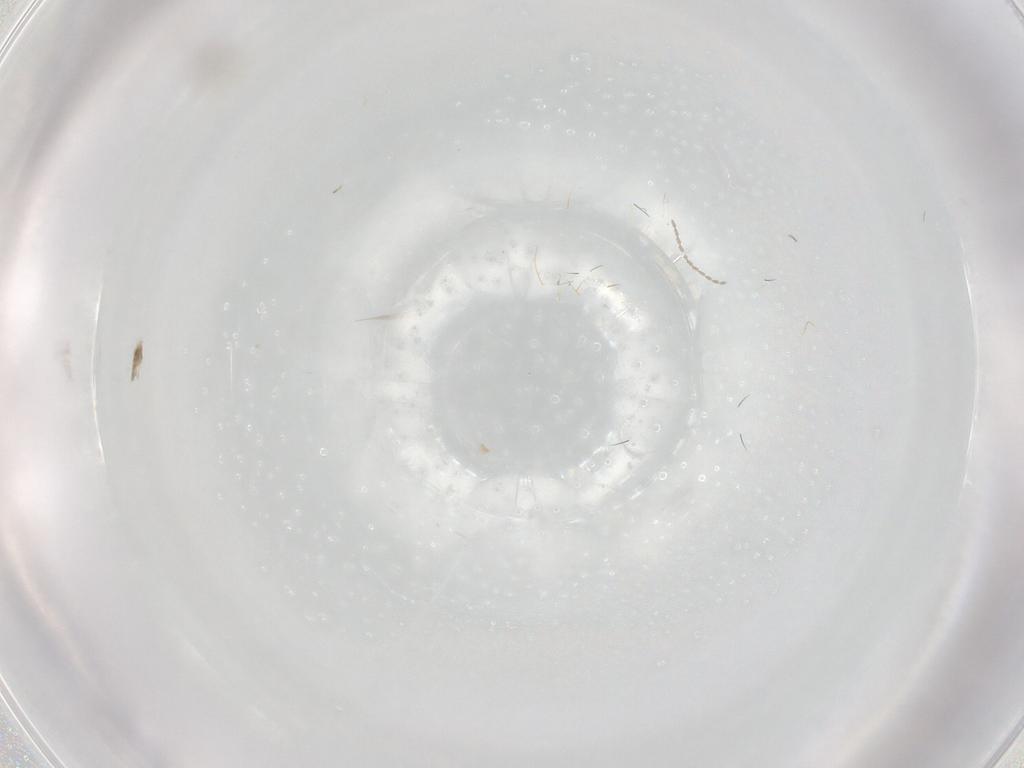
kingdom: Animalia
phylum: Arthropoda
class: Insecta
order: Diptera
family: Cecidomyiidae
